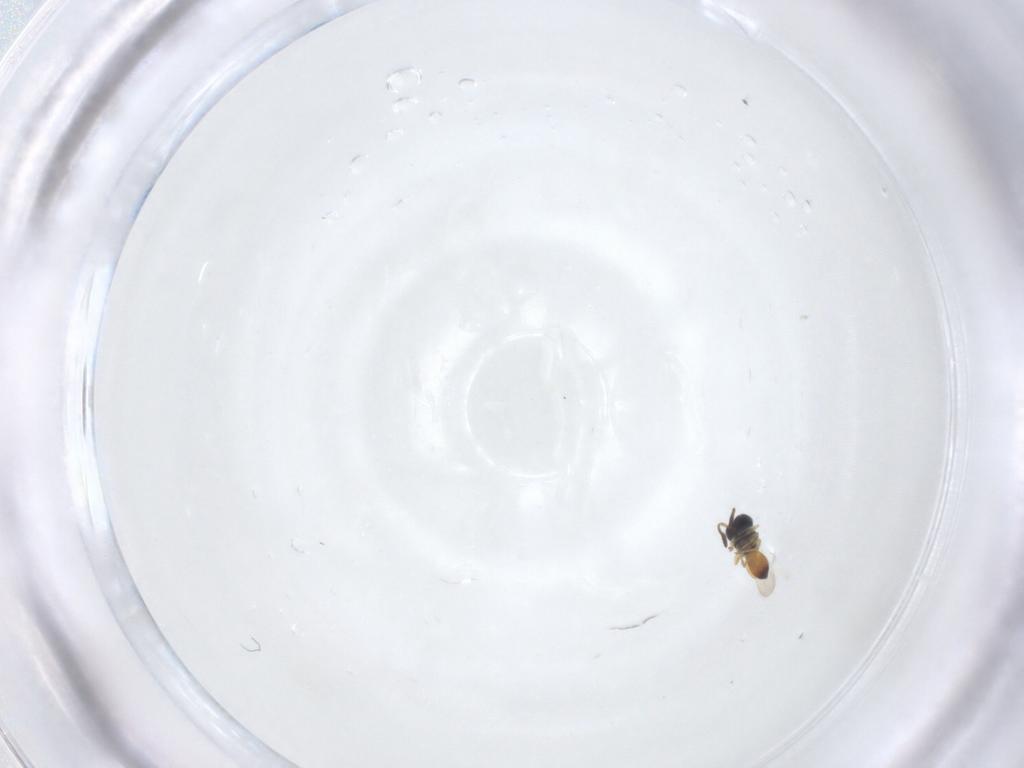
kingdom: Animalia
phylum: Arthropoda
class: Insecta
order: Hymenoptera
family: Scelionidae
